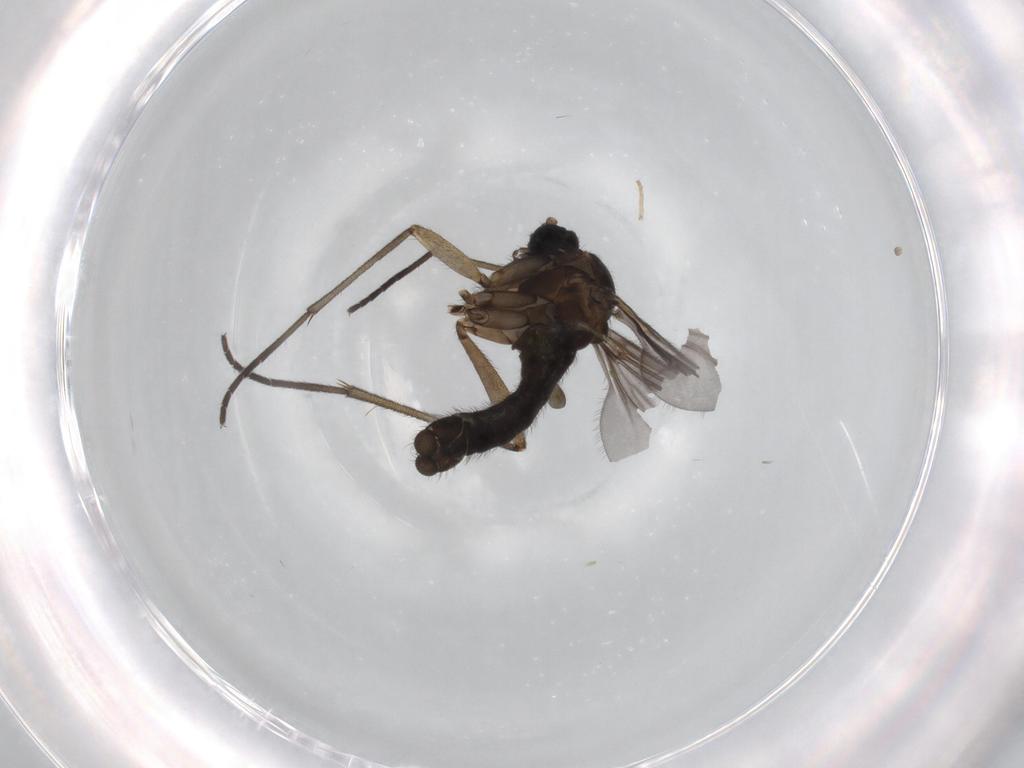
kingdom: Animalia
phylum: Arthropoda
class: Insecta
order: Diptera
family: Sciaridae
